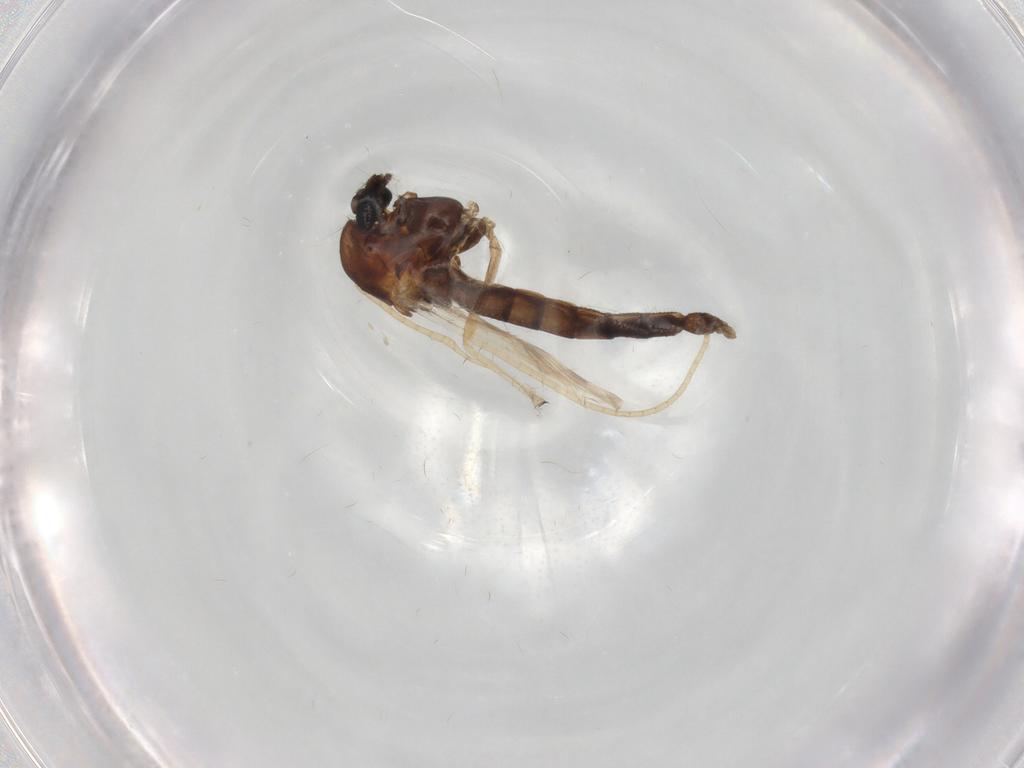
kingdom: Animalia
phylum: Arthropoda
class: Insecta
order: Diptera
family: Chironomidae
